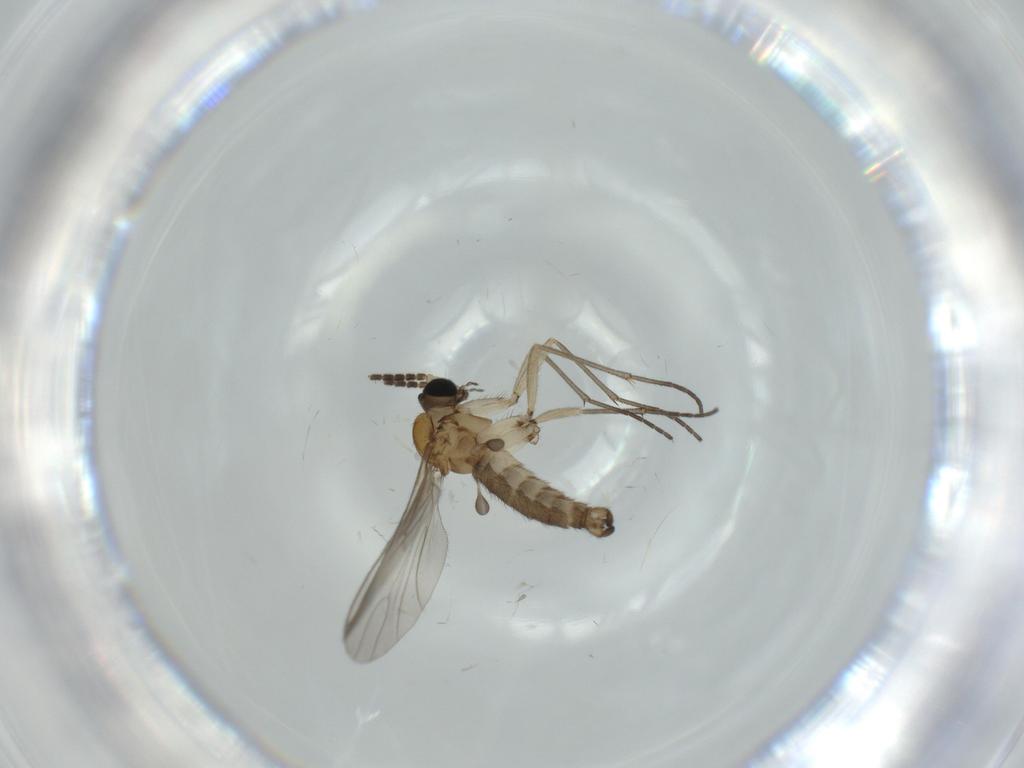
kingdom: Animalia
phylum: Arthropoda
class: Insecta
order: Diptera
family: Sciaridae
